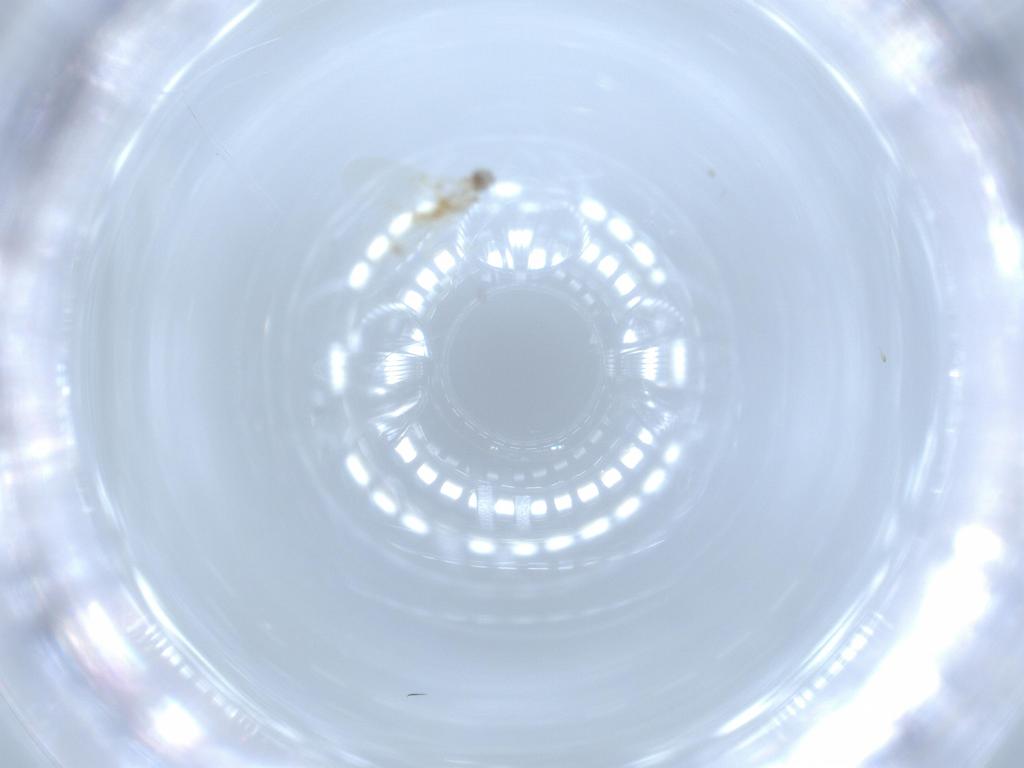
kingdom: Animalia
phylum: Arthropoda
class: Insecta
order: Diptera
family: Cecidomyiidae
